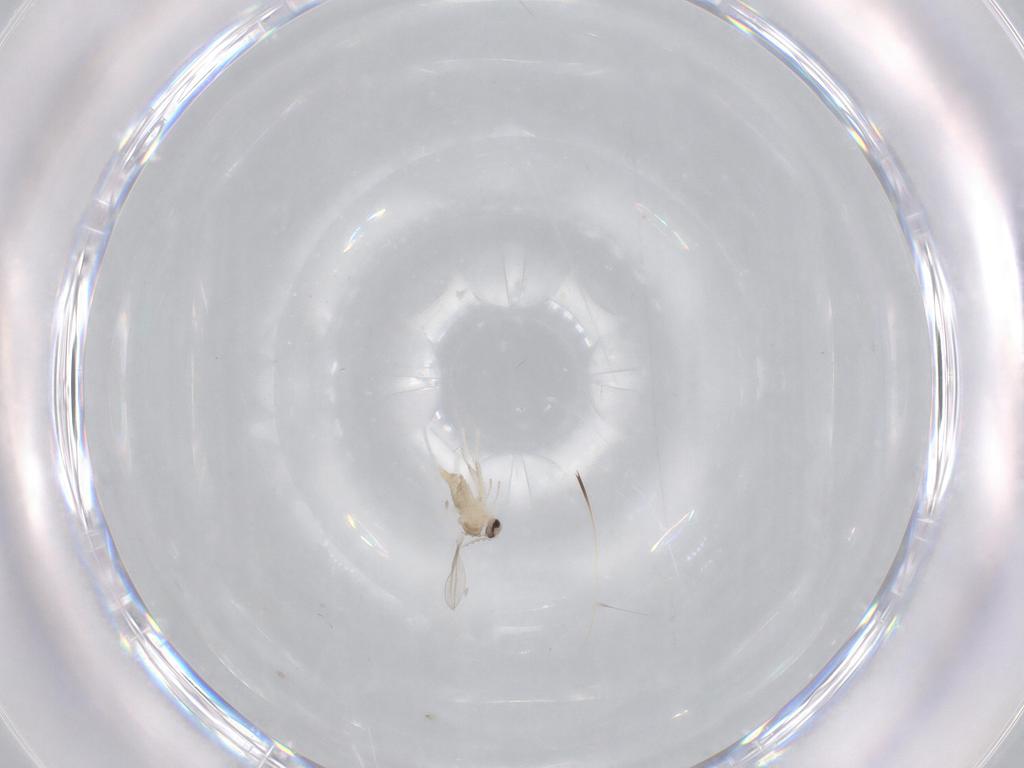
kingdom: Animalia
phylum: Arthropoda
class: Insecta
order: Diptera
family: Cecidomyiidae
